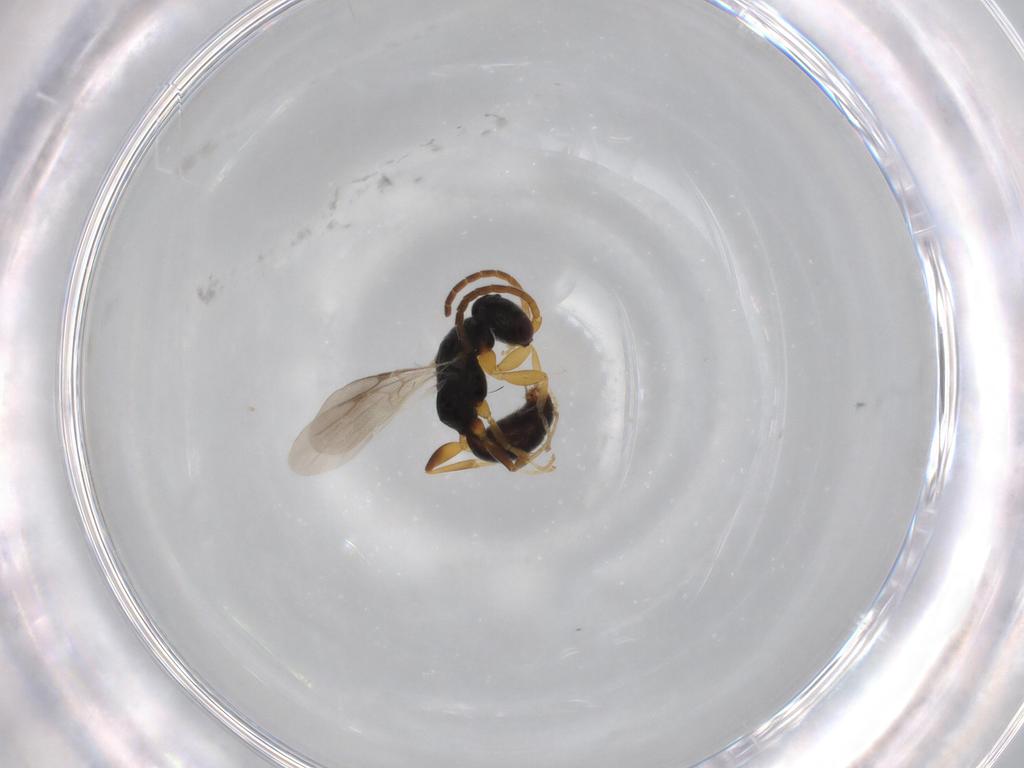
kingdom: Animalia
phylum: Arthropoda
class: Insecta
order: Hymenoptera
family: Bethylidae
